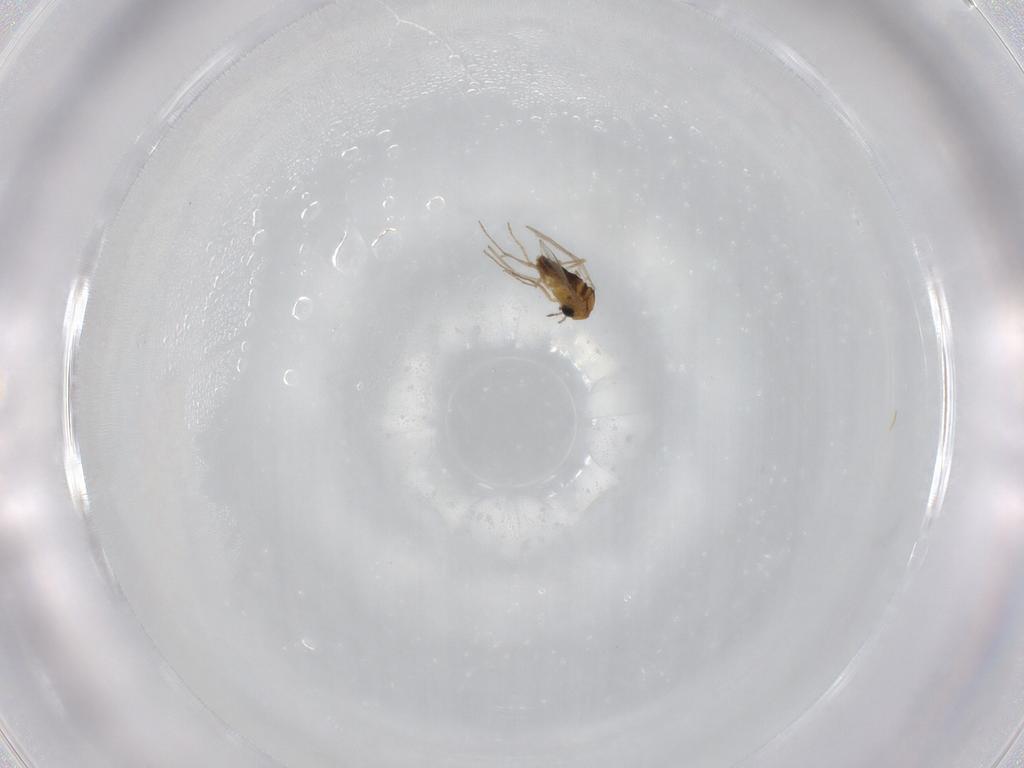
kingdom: Animalia
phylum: Arthropoda
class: Insecta
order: Diptera
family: Chironomidae
